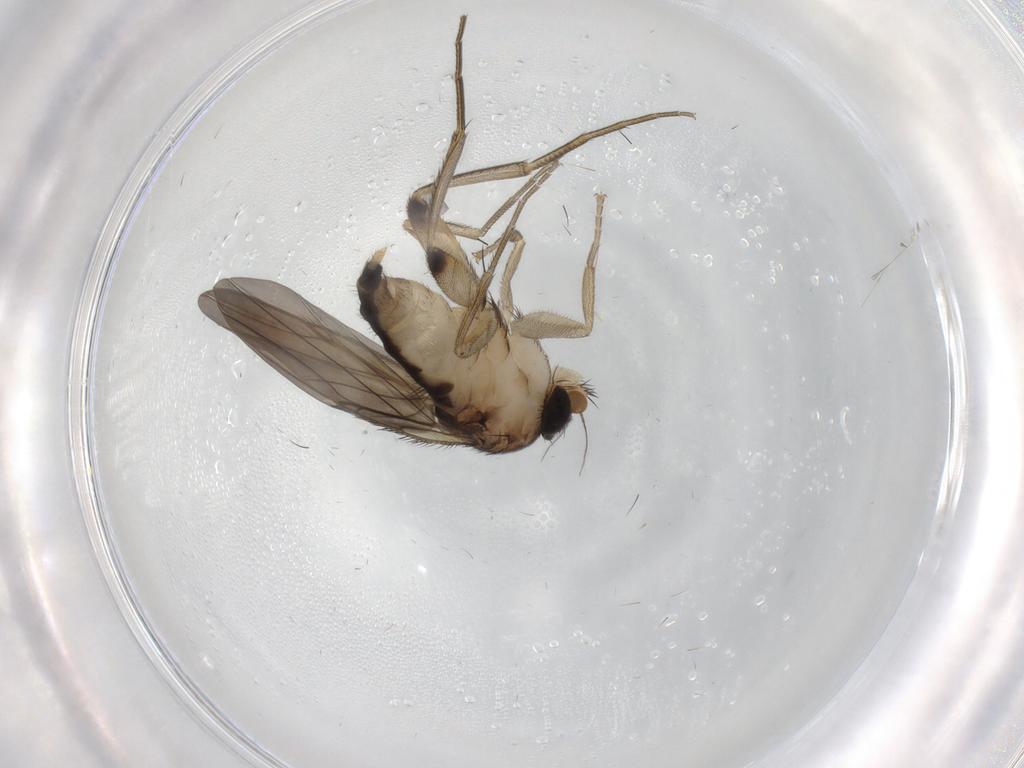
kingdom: Animalia
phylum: Arthropoda
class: Insecta
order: Diptera
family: Phoridae
